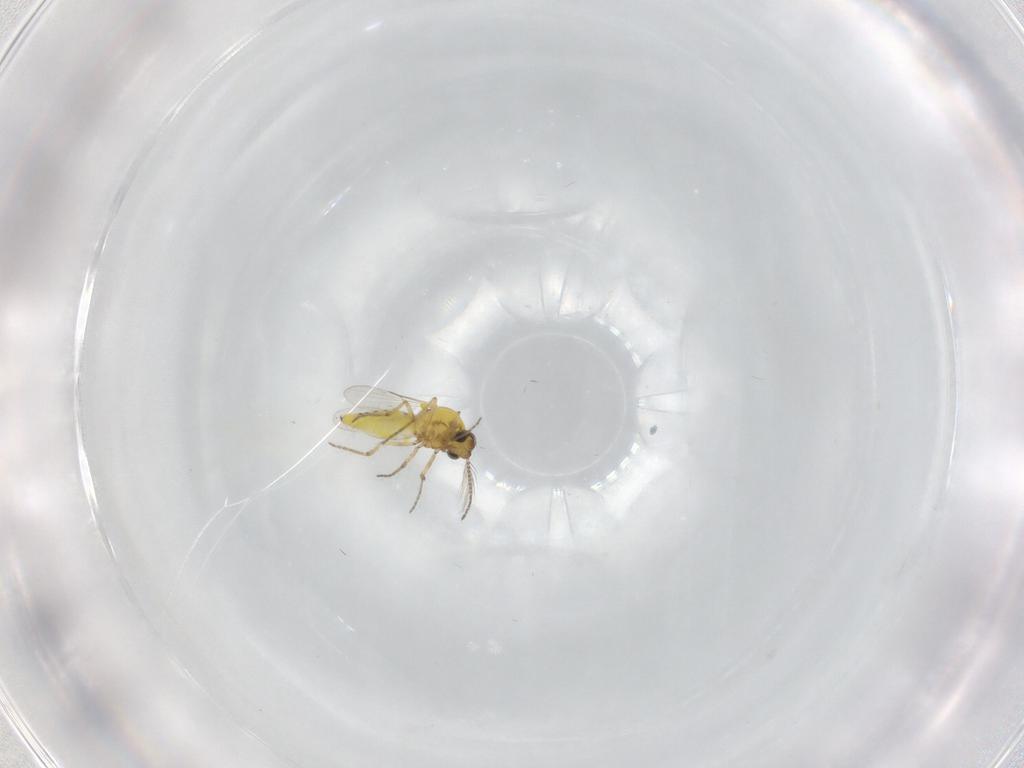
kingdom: Animalia
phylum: Arthropoda
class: Insecta
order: Diptera
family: Ceratopogonidae
